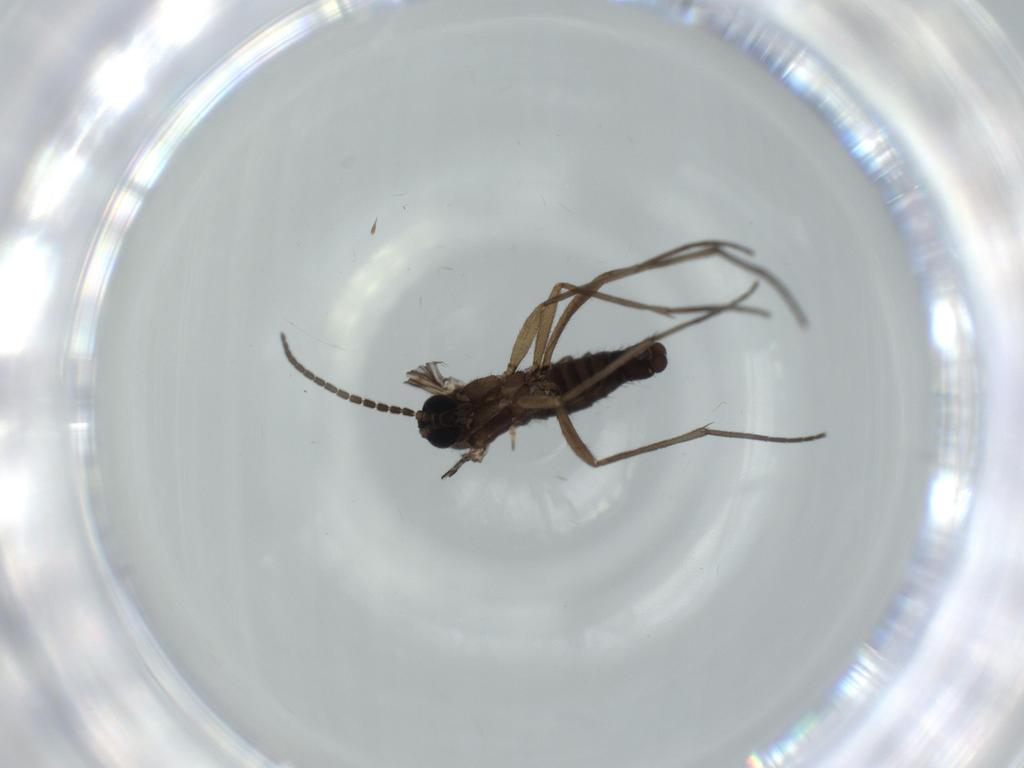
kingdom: Animalia
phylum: Arthropoda
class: Insecta
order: Diptera
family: Sciaridae
